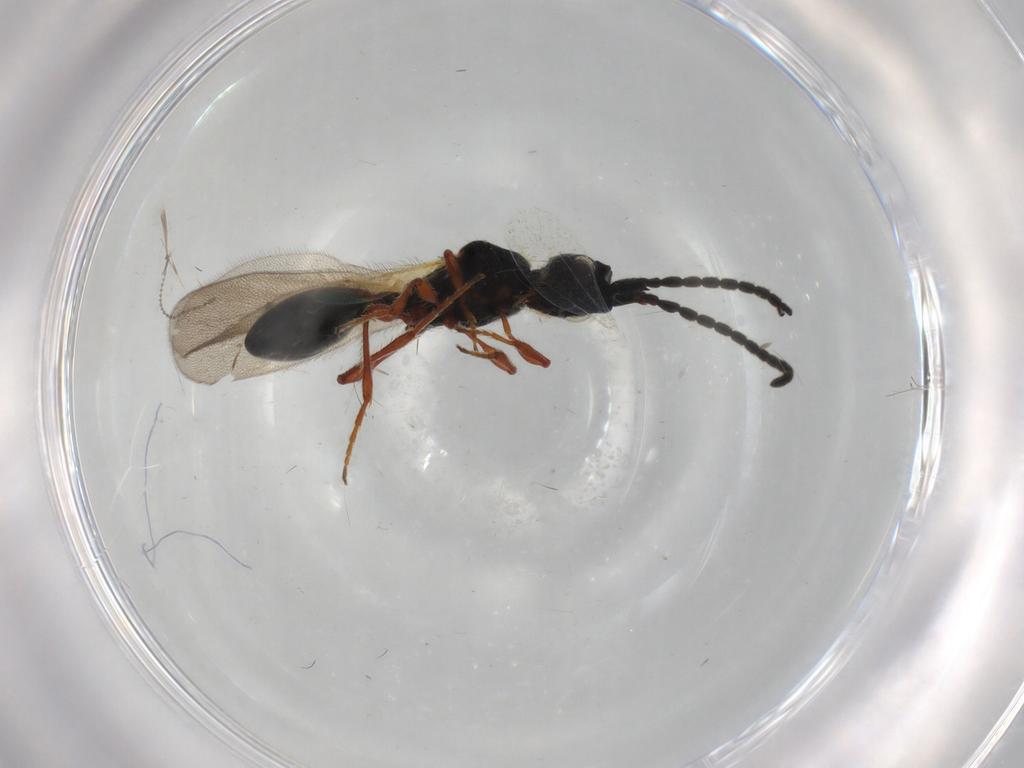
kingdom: Animalia
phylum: Arthropoda
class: Insecta
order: Hymenoptera
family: Diapriidae
